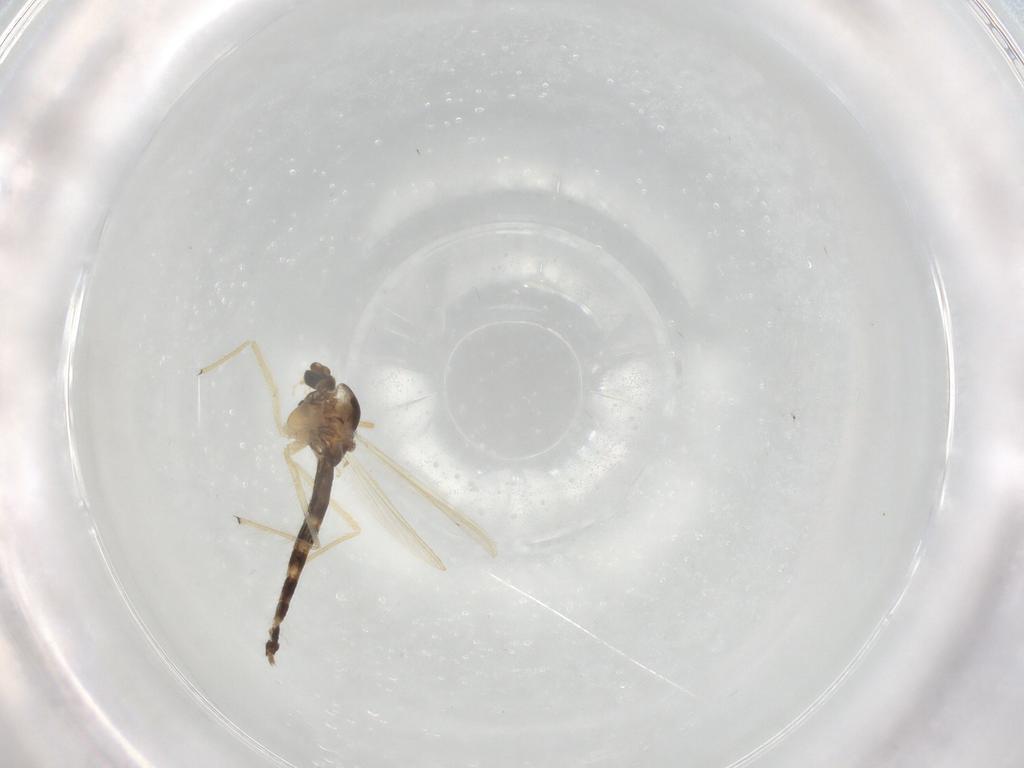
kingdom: Animalia
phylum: Arthropoda
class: Insecta
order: Diptera
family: Chironomidae
